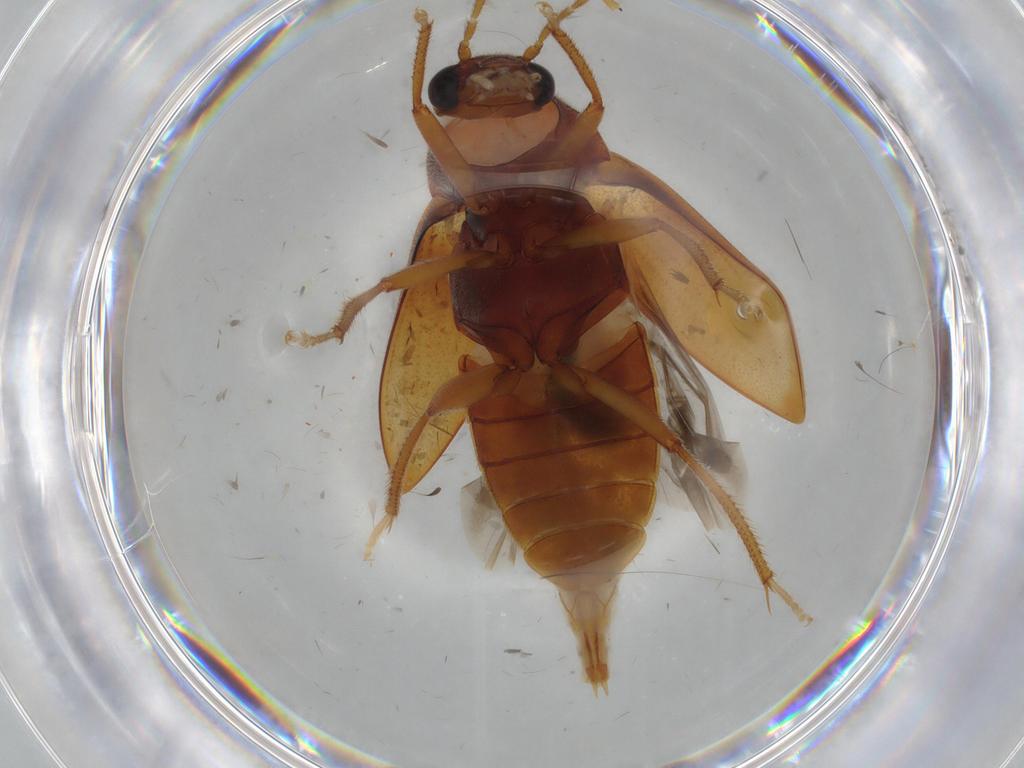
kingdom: Animalia
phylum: Arthropoda
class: Insecta
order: Coleoptera
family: Elateridae
